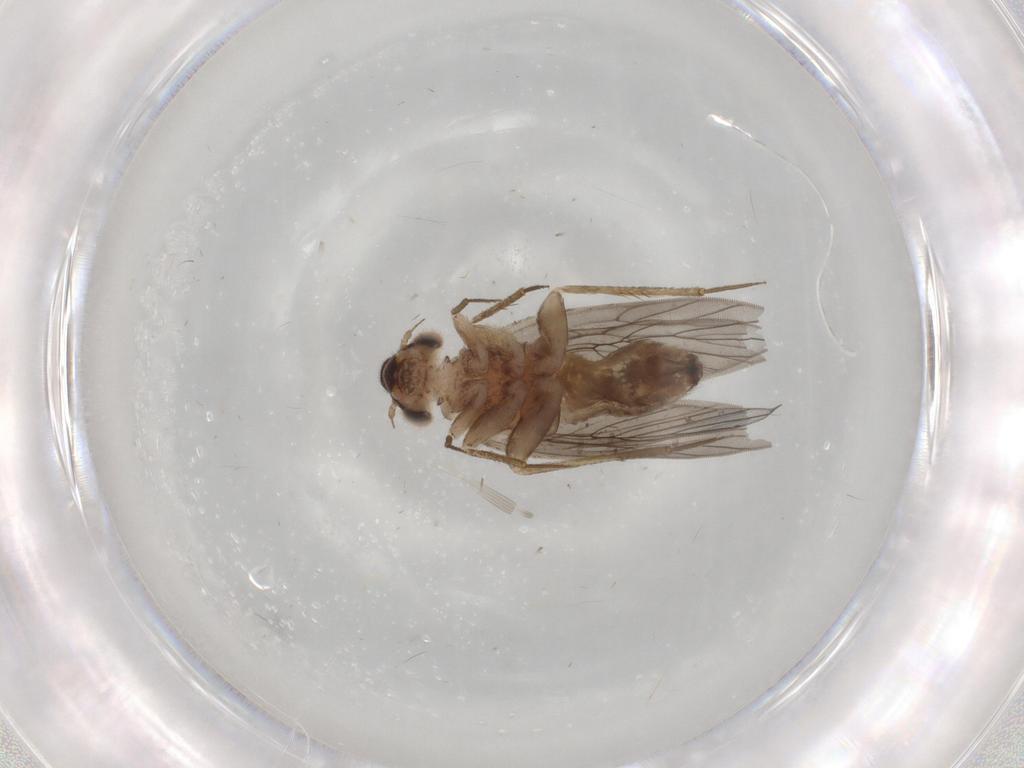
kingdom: Animalia
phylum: Arthropoda
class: Insecta
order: Psocodea
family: Lepidopsocidae
